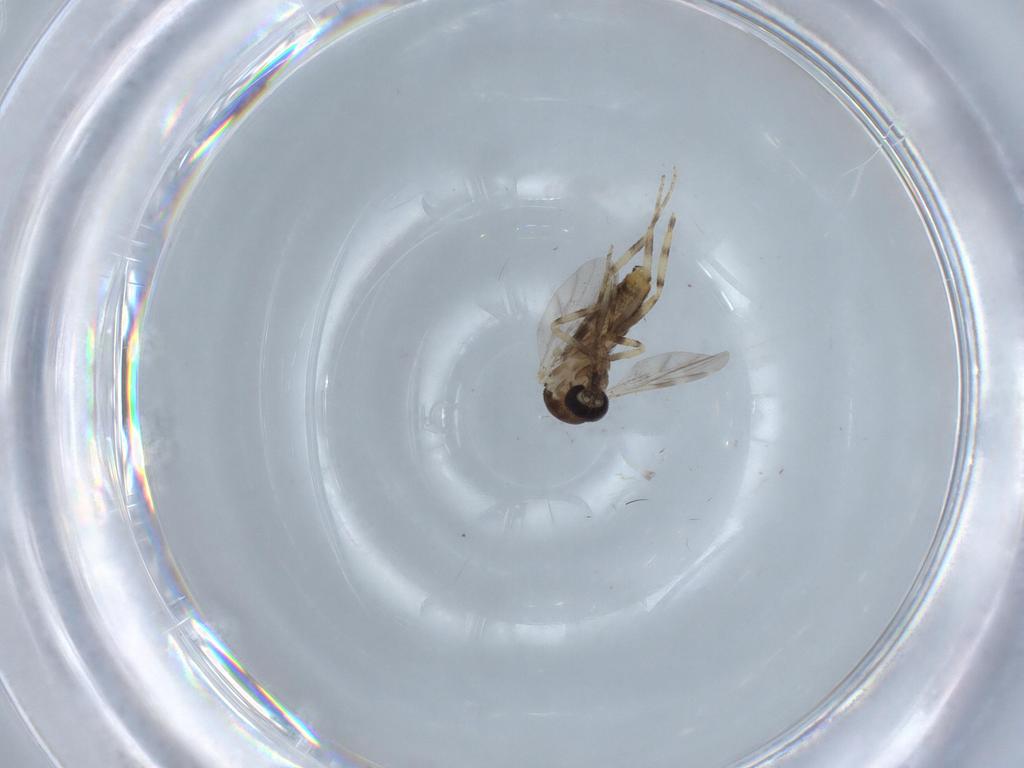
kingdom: Animalia
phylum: Arthropoda
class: Insecta
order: Diptera
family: Ceratopogonidae
